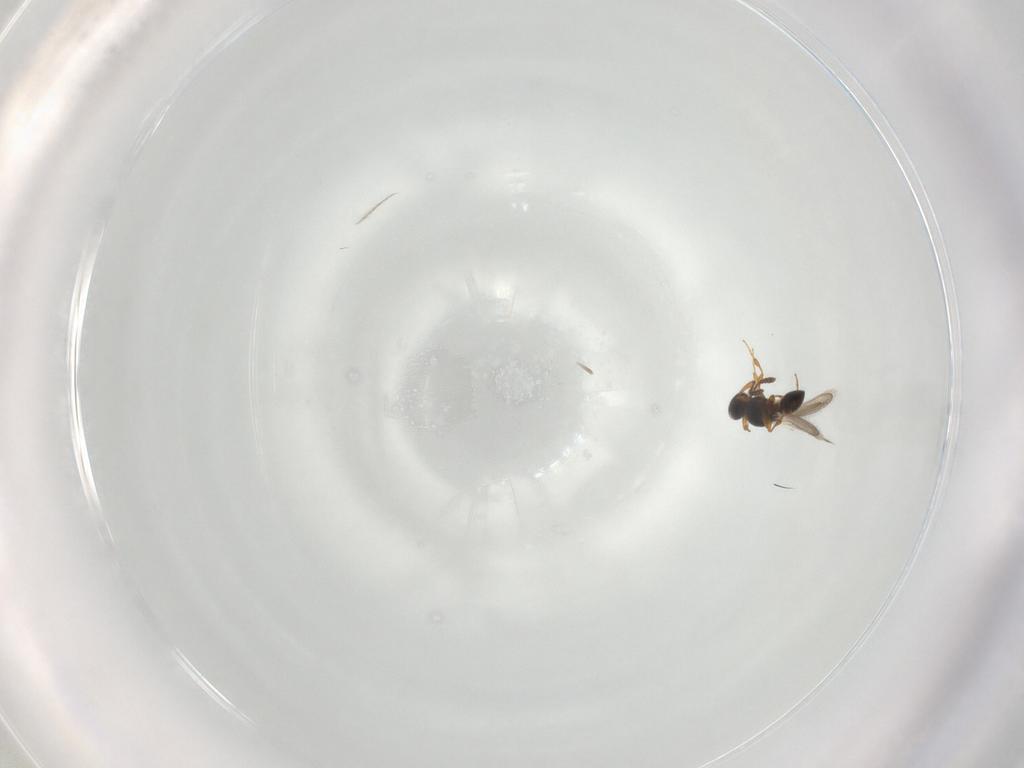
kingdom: Animalia
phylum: Arthropoda
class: Insecta
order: Hymenoptera
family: Platygastridae
